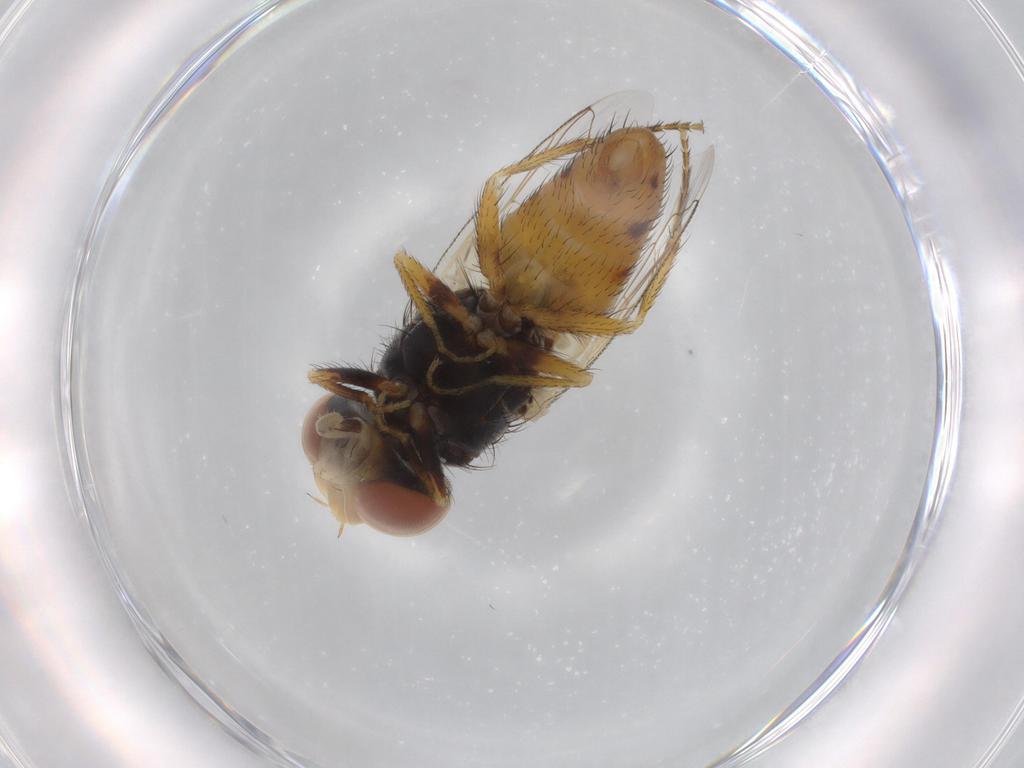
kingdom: Animalia
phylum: Arthropoda
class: Insecta
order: Diptera
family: Sarcophagidae
